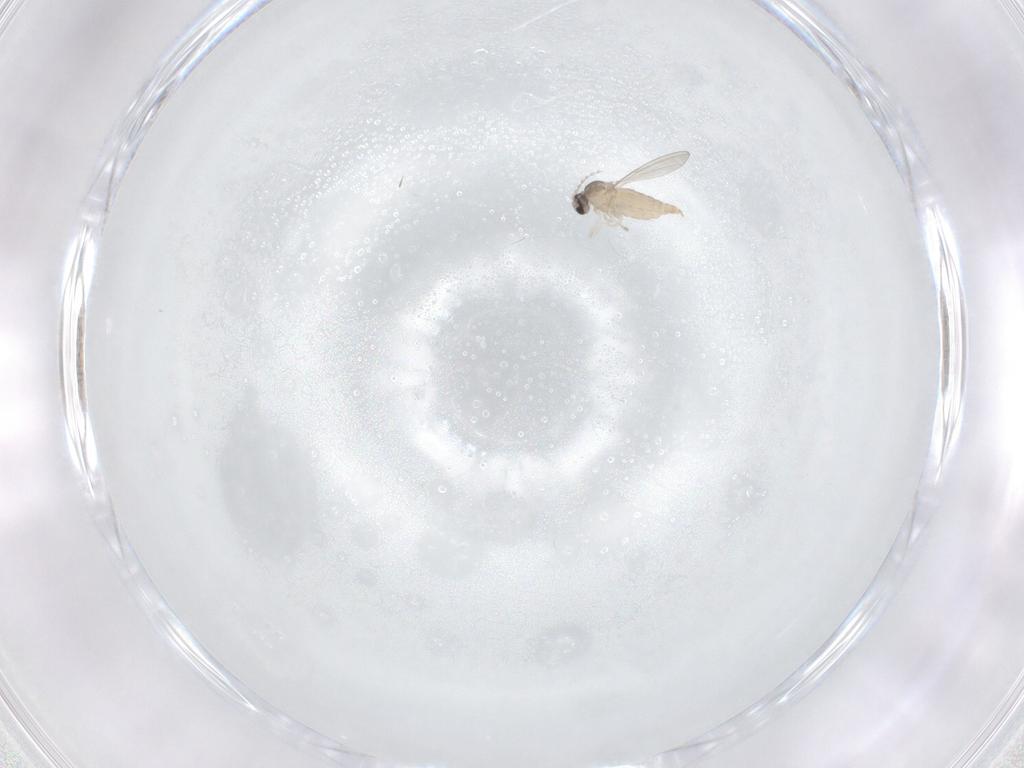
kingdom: Animalia
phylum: Arthropoda
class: Insecta
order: Diptera
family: Cecidomyiidae
